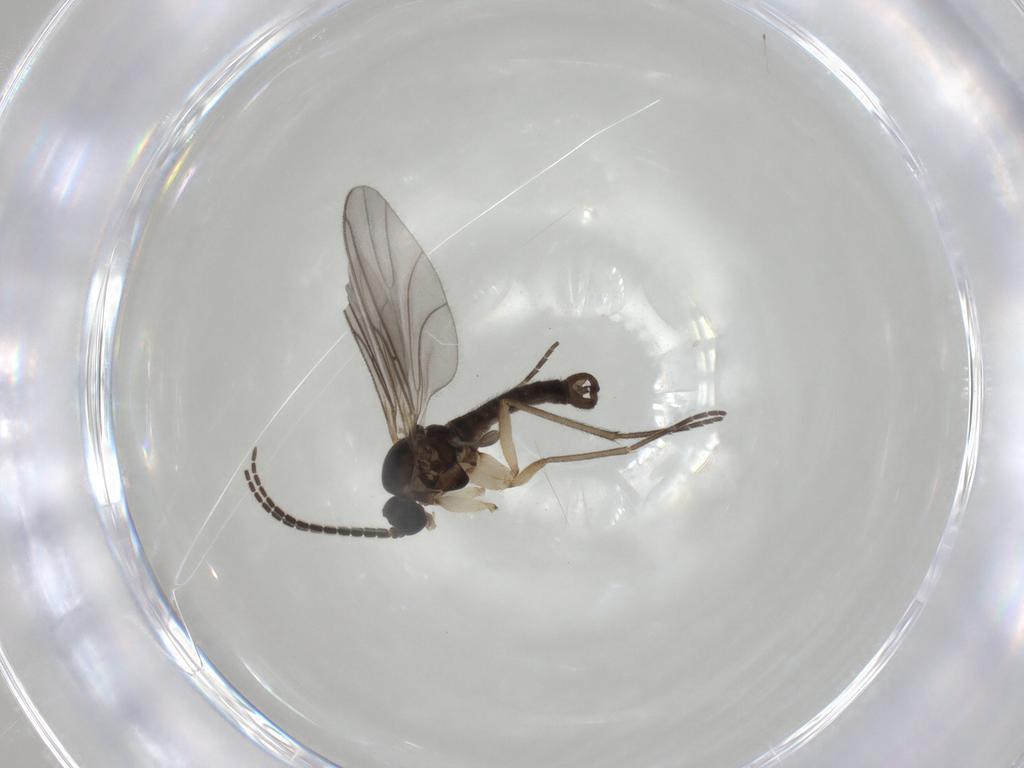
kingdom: Animalia
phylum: Arthropoda
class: Insecta
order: Diptera
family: Sciaridae
